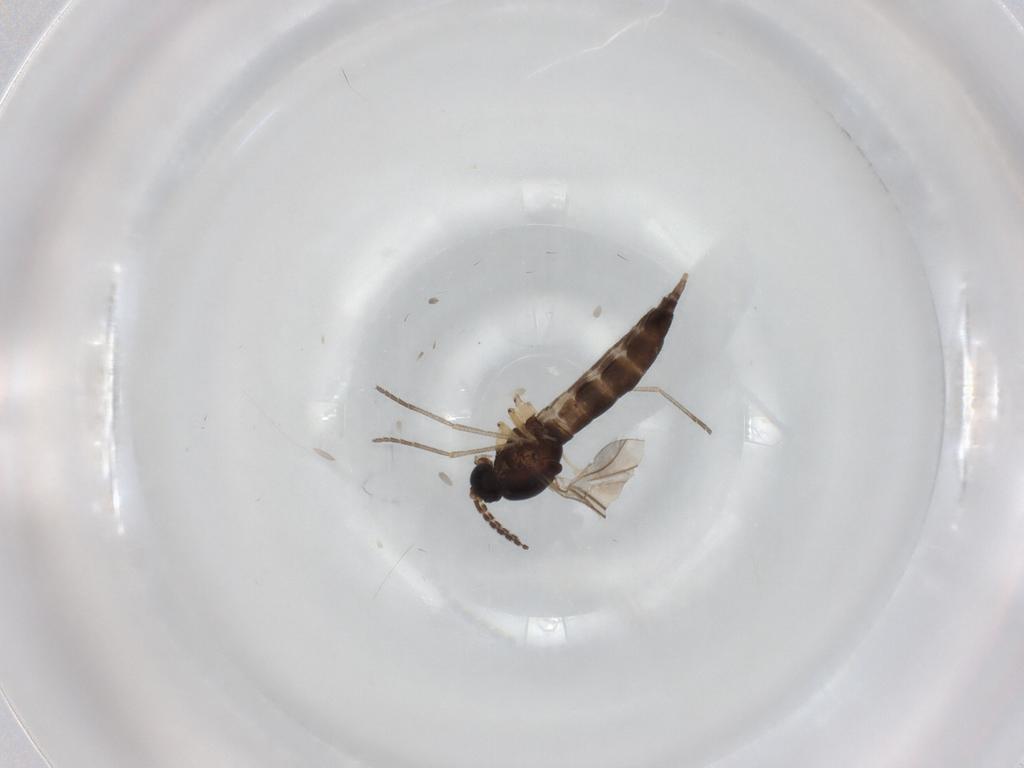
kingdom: Animalia
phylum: Arthropoda
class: Insecta
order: Diptera
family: Sciaridae
